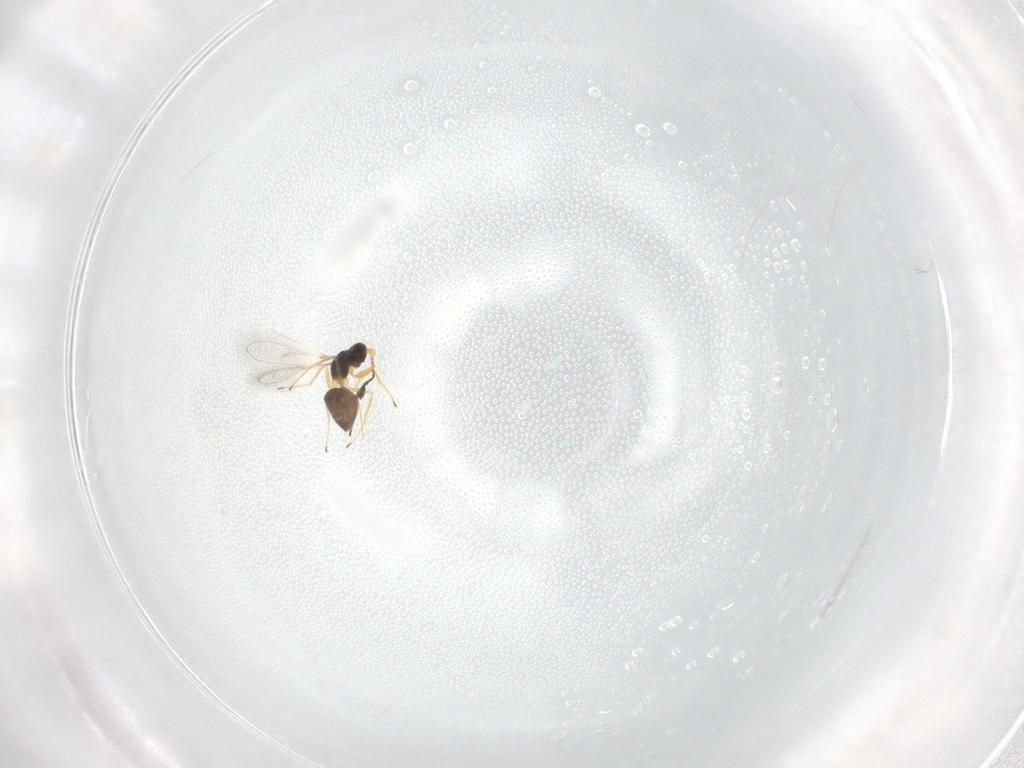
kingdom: Animalia
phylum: Arthropoda
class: Insecta
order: Hymenoptera
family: Mymaridae
